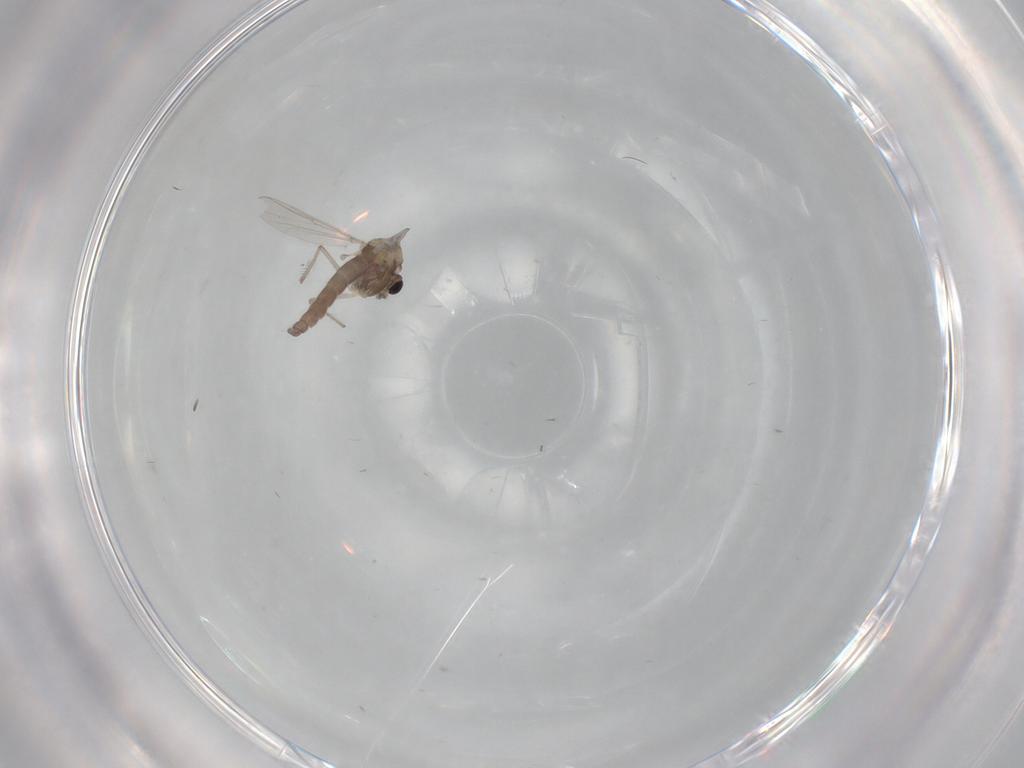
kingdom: Animalia
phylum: Arthropoda
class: Insecta
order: Diptera
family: Chironomidae
